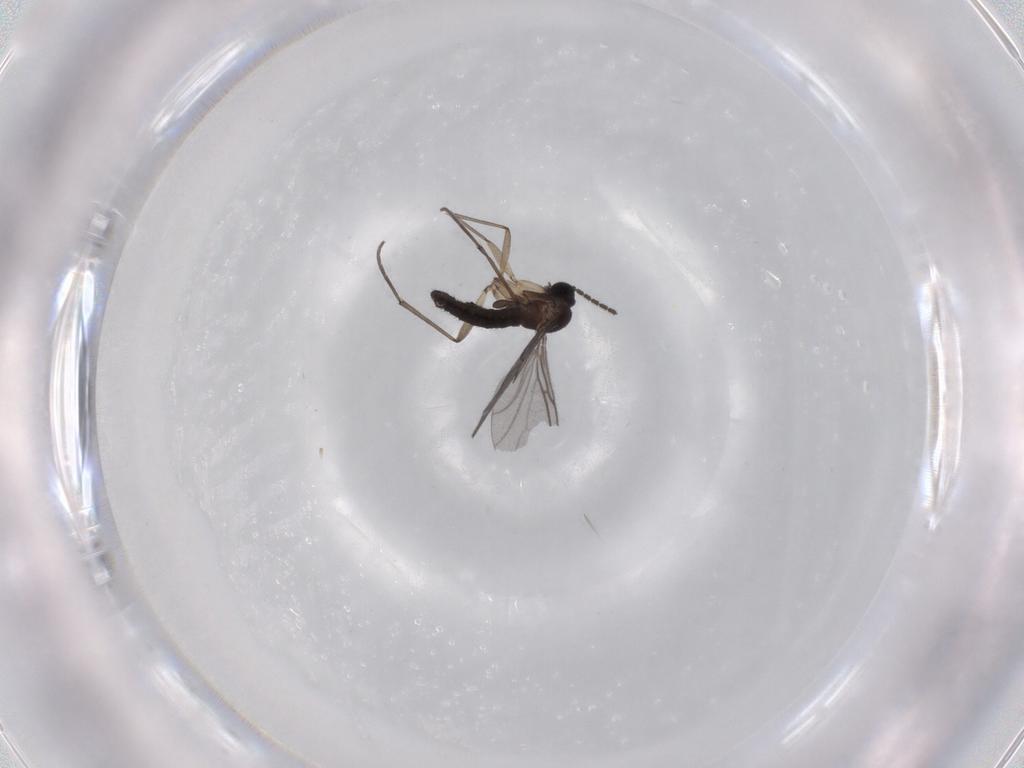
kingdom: Animalia
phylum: Arthropoda
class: Insecta
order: Diptera
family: Sciaridae
